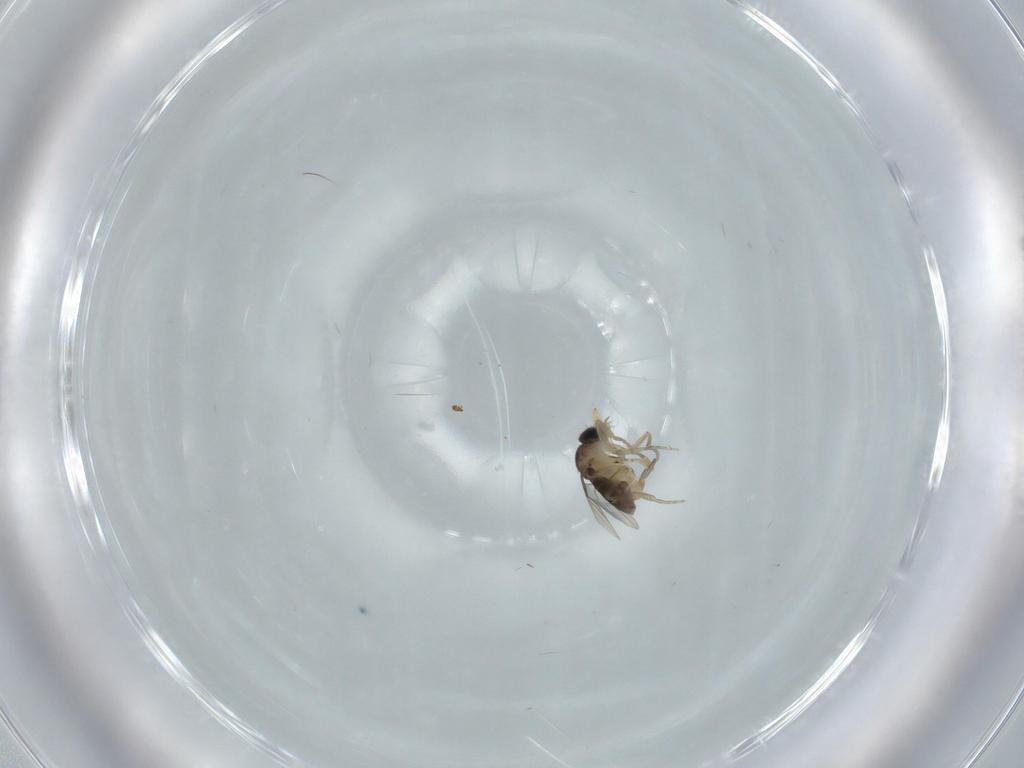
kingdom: Animalia
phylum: Arthropoda
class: Insecta
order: Diptera
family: Phoridae
